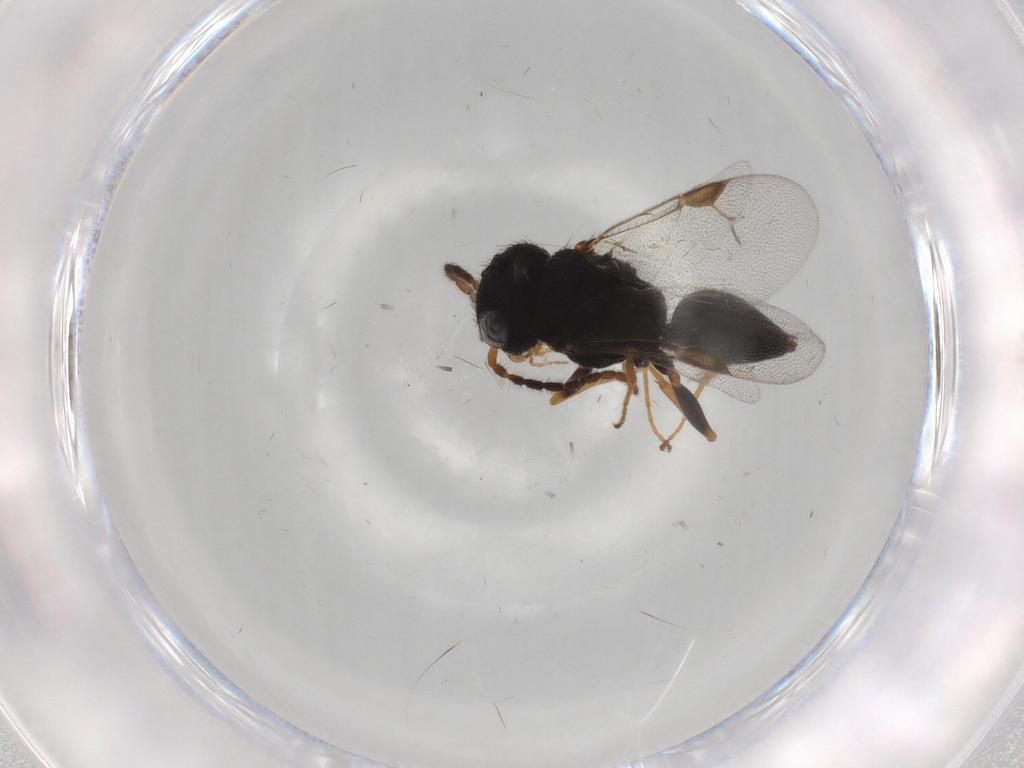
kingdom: Animalia
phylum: Arthropoda
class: Insecta
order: Hymenoptera
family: Dryinidae
